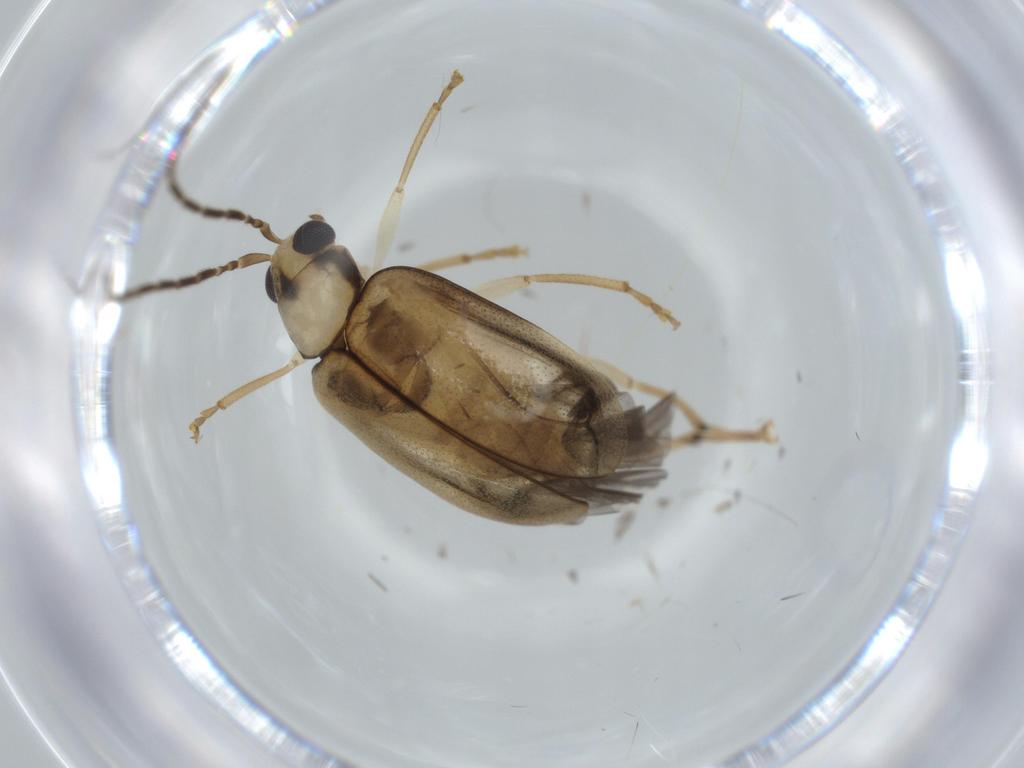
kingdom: Animalia
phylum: Arthropoda
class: Insecta
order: Coleoptera
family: Chrysomelidae
